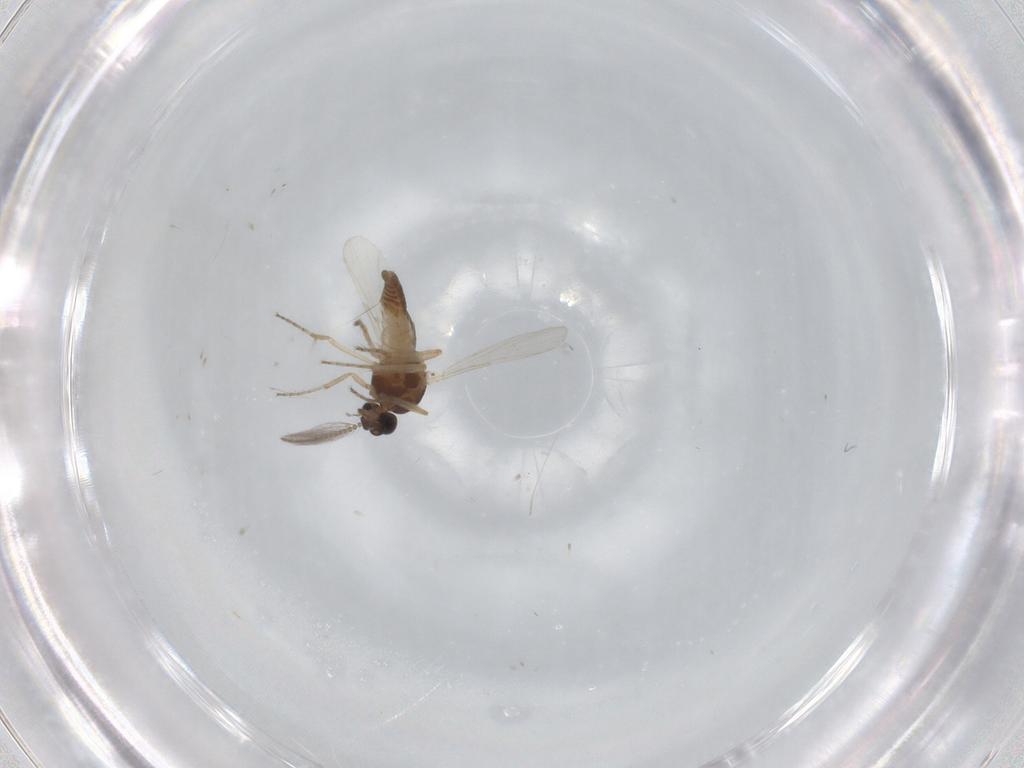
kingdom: Animalia
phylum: Arthropoda
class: Insecta
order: Diptera
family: Ceratopogonidae
